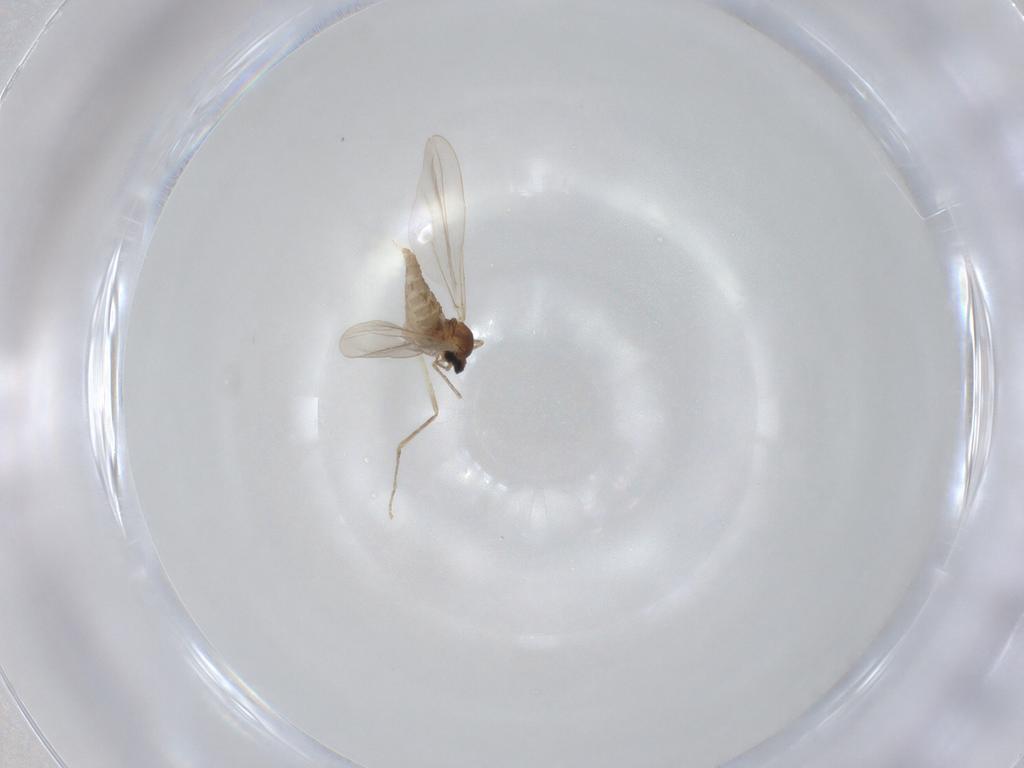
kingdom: Animalia
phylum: Arthropoda
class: Insecta
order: Diptera
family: Cecidomyiidae
